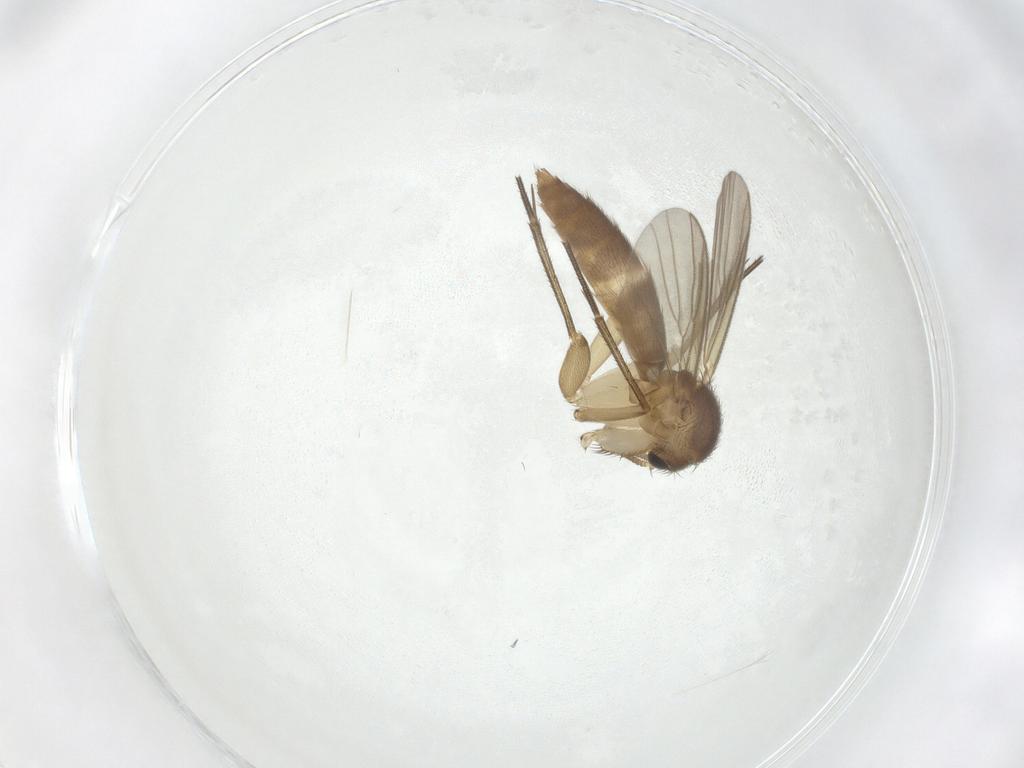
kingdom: Animalia
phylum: Arthropoda
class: Insecta
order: Diptera
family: Mycetophilidae
